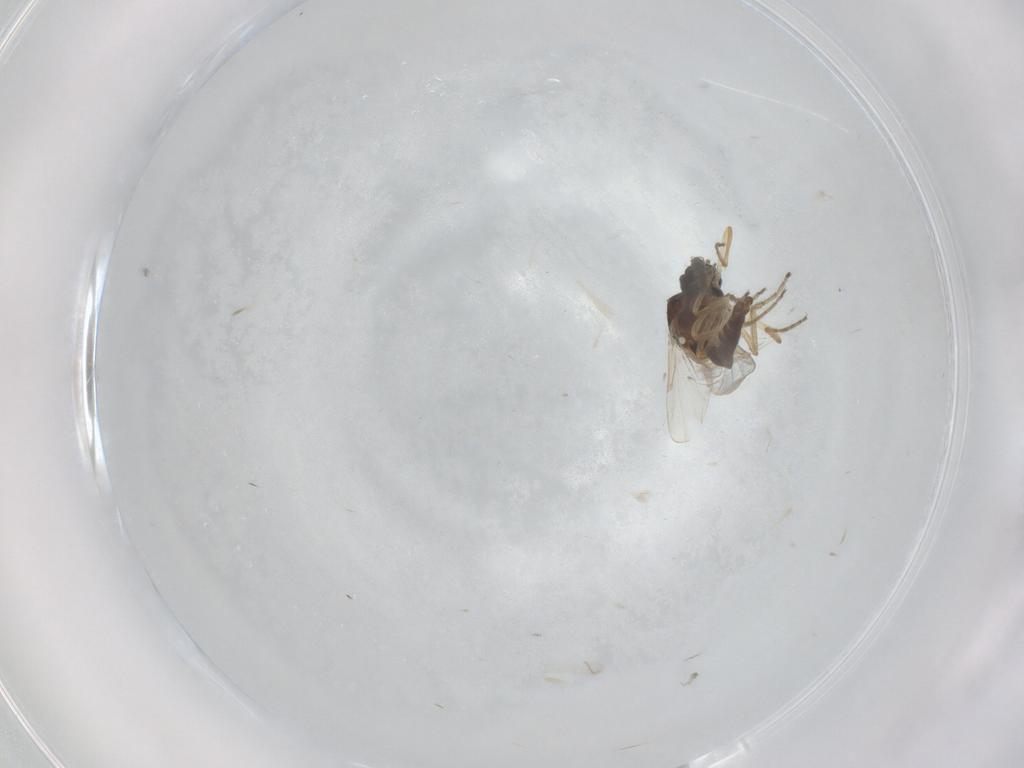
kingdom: Animalia
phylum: Arthropoda
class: Insecta
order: Diptera
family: Ceratopogonidae
